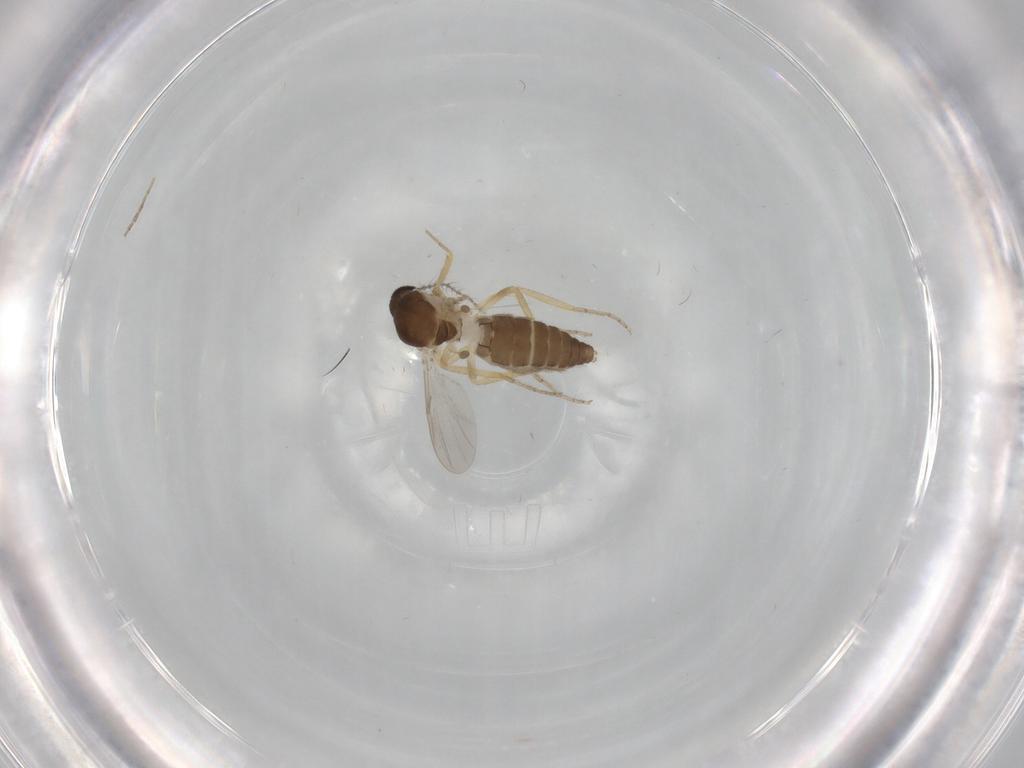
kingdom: Animalia
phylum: Arthropoda
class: Insecta
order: Diptera
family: Ceratopogonidae
